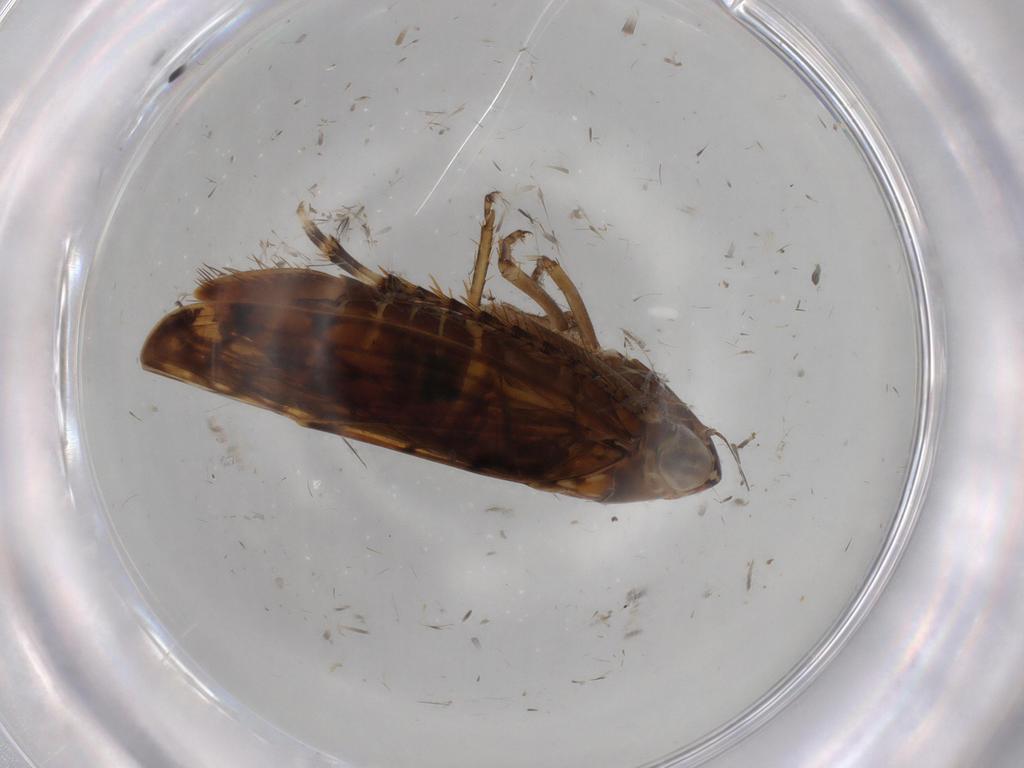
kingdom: Animalia
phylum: Arthropoda
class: Insecta
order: Hemiptera
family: Cicadellidae
